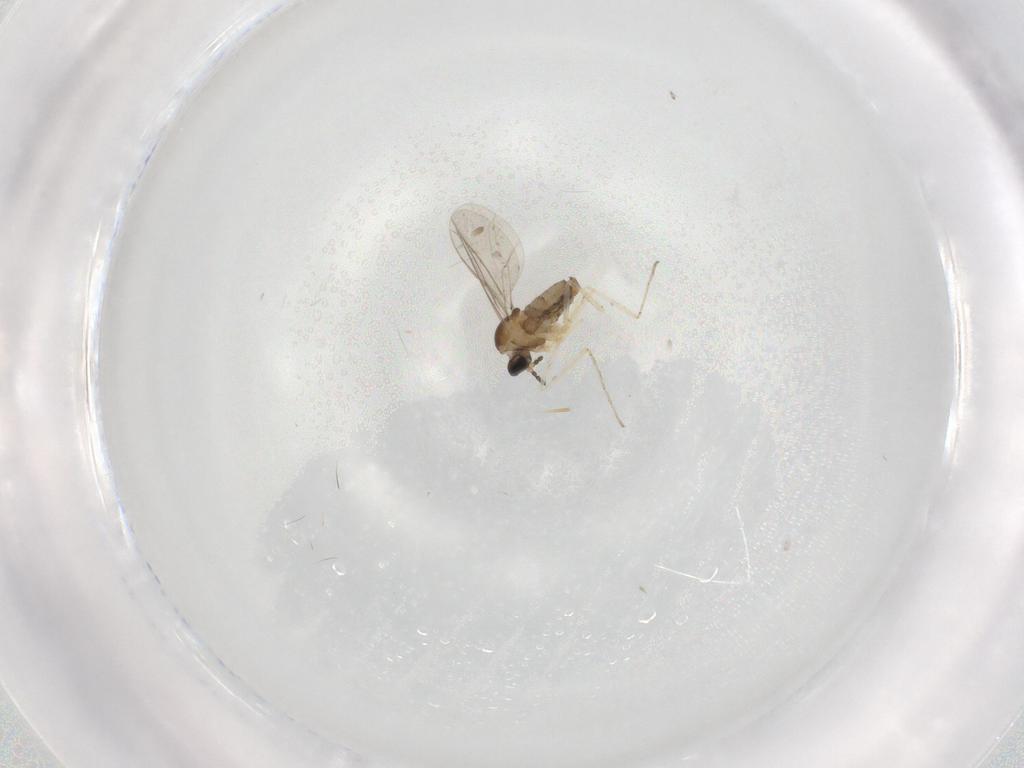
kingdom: Animalia
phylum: Arthropoda
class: Insecta
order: Diptera
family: Cecidomyiidae
